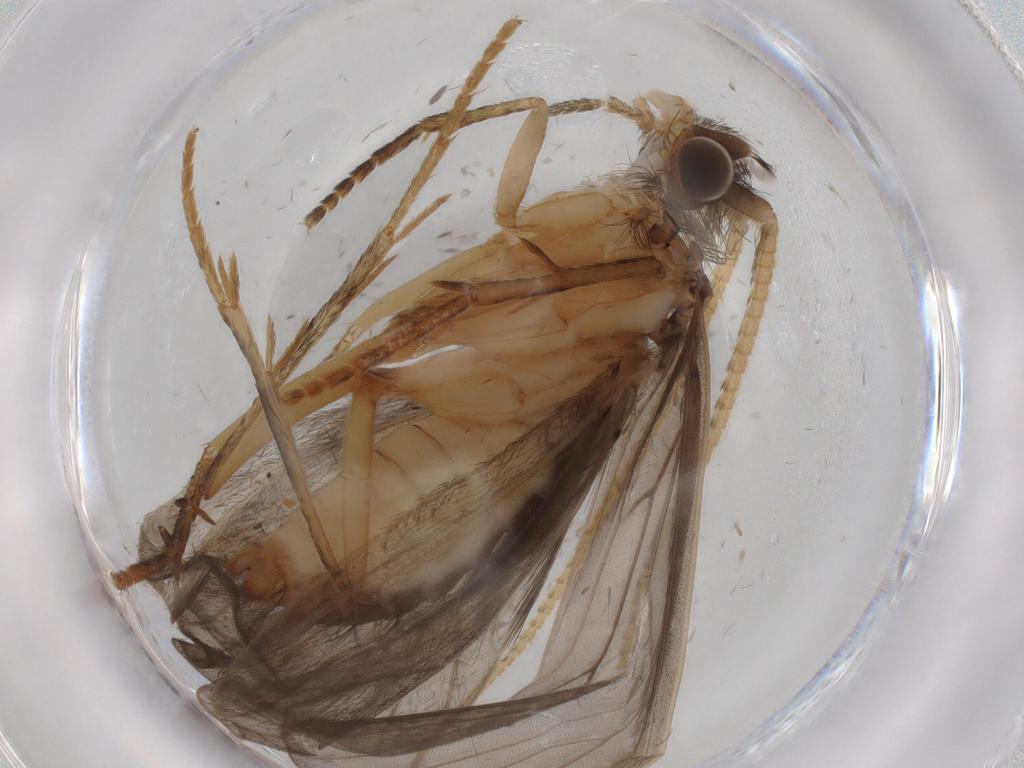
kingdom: Animalia
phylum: Arthropoda
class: Insecta
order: Trichoptera
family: Lepidostomatidae
